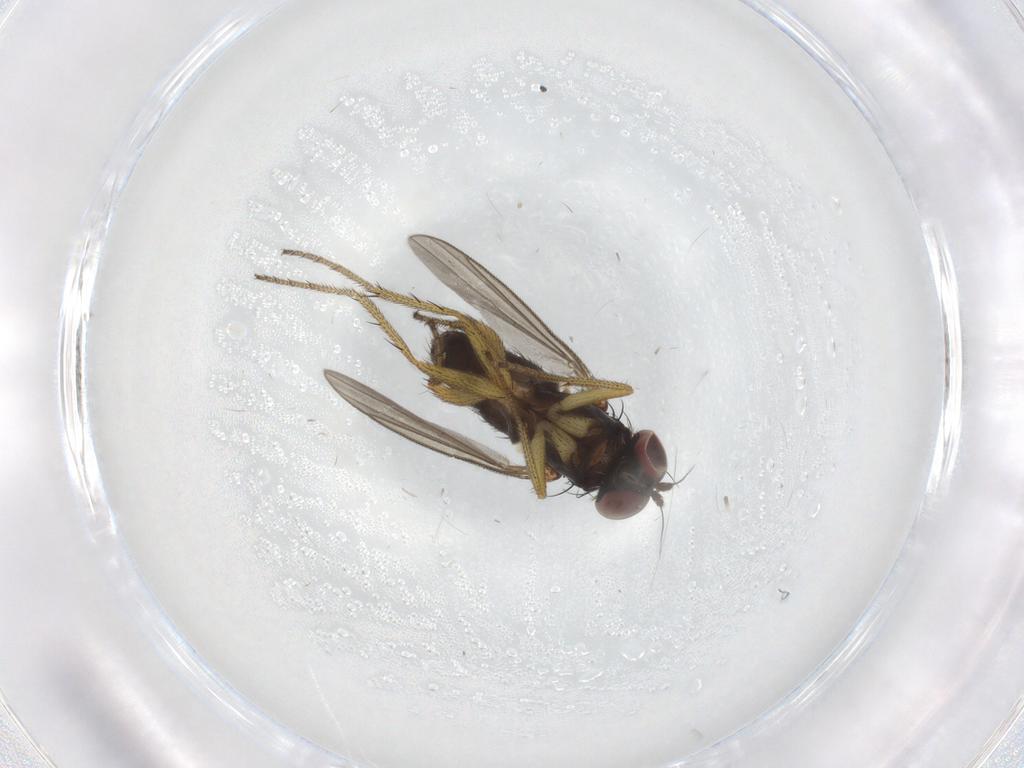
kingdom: Animalia
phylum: Arthropoda
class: Insecta
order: Diptera
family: Dolichopodidae
